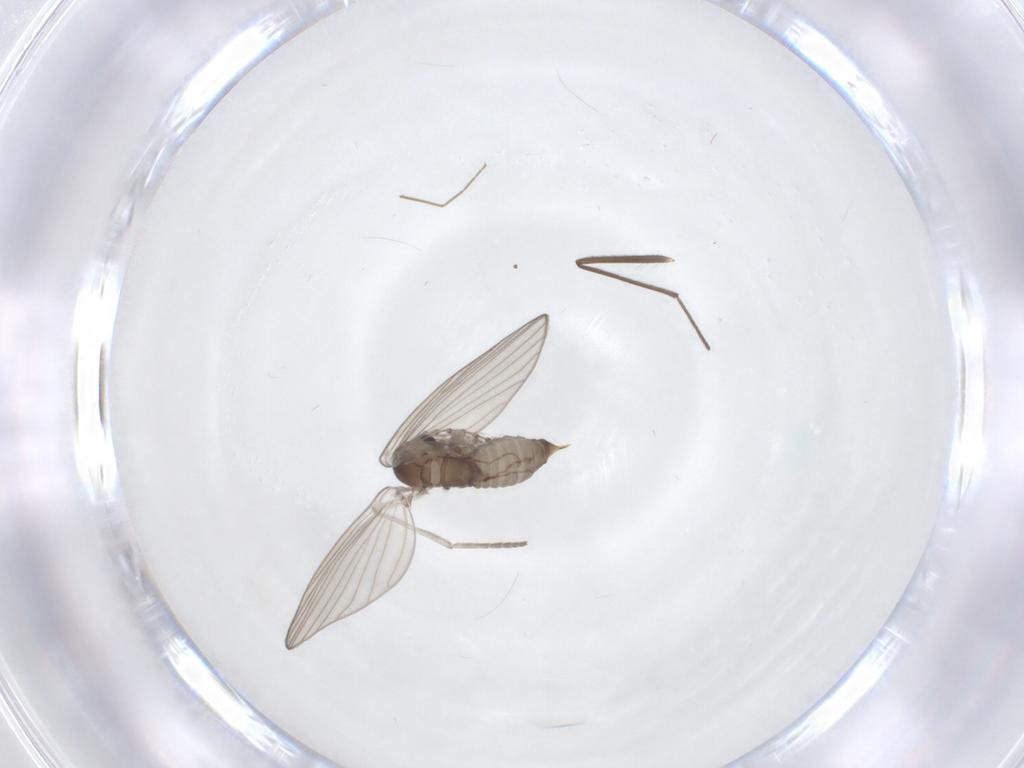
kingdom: Animalia
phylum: Arthropoda
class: Insecta
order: Diptera
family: Psychodidae
